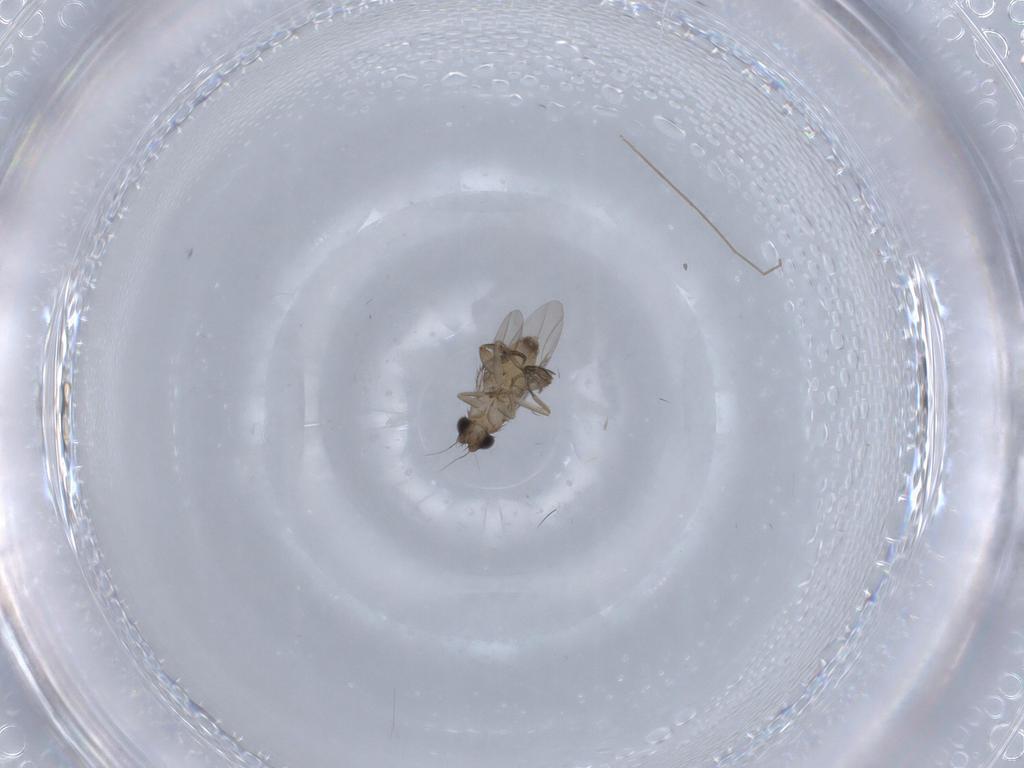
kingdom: Animalia
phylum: Arthropoda
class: Insecta
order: Diptera
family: Phoridae
